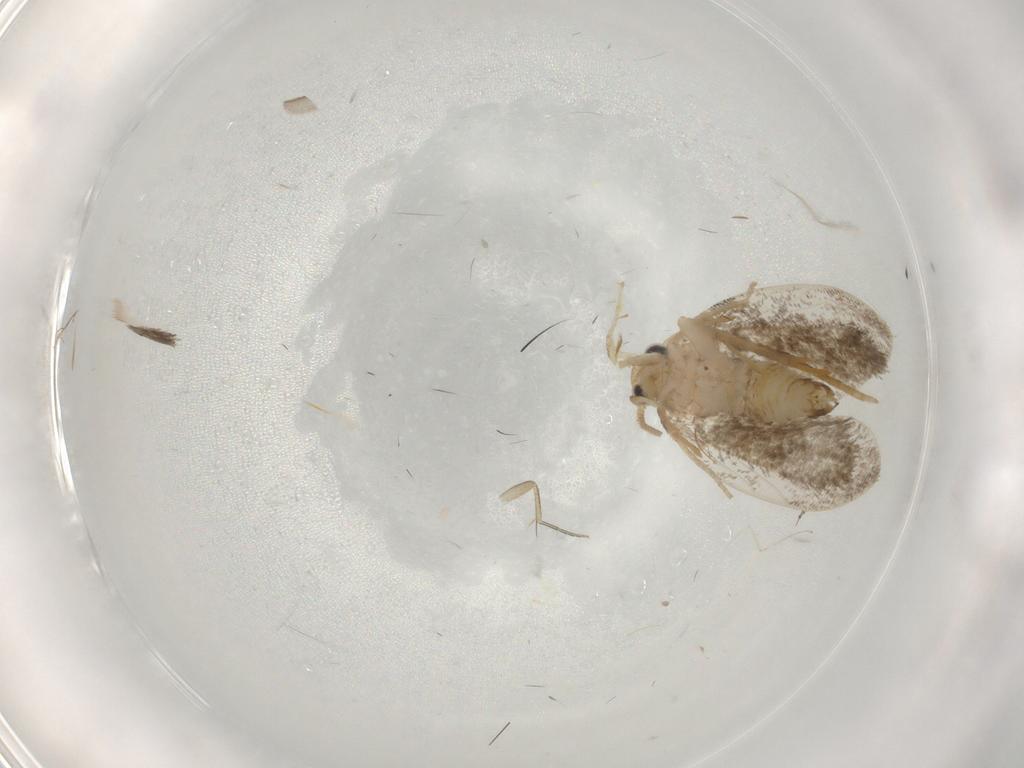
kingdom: Animalia
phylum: Arthropoda
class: Insecta
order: Lepidoptera
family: Psychidae
